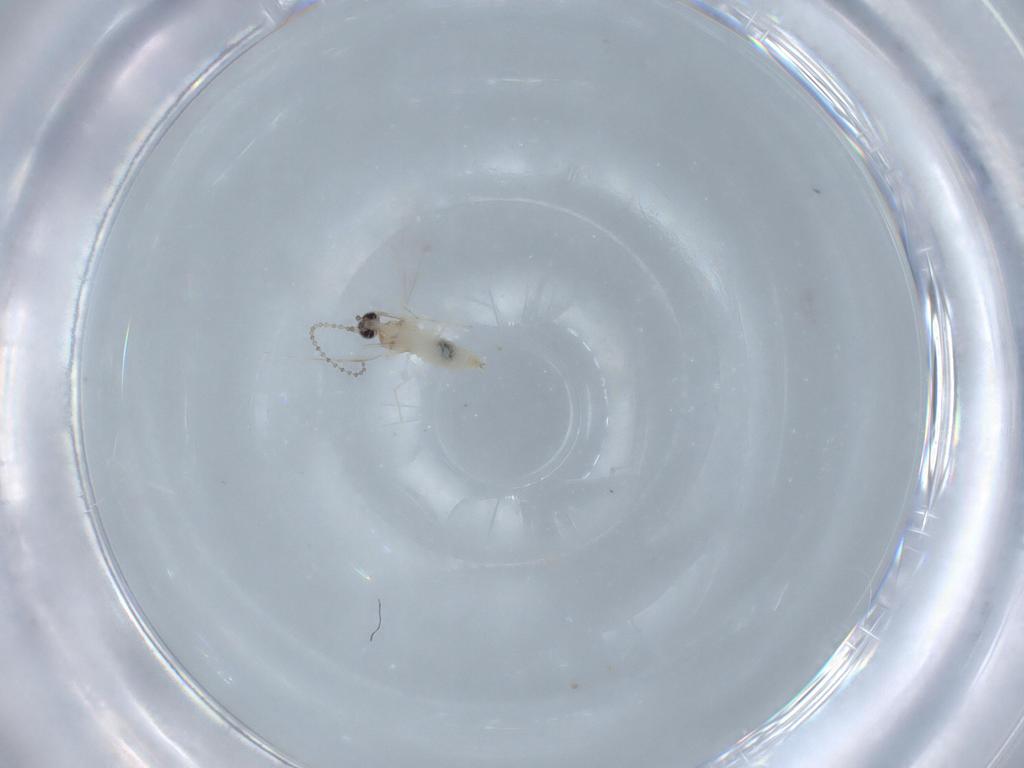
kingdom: Animalia
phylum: Arthropoda
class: Insecta
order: Diptera
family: Cecidomyiidae
